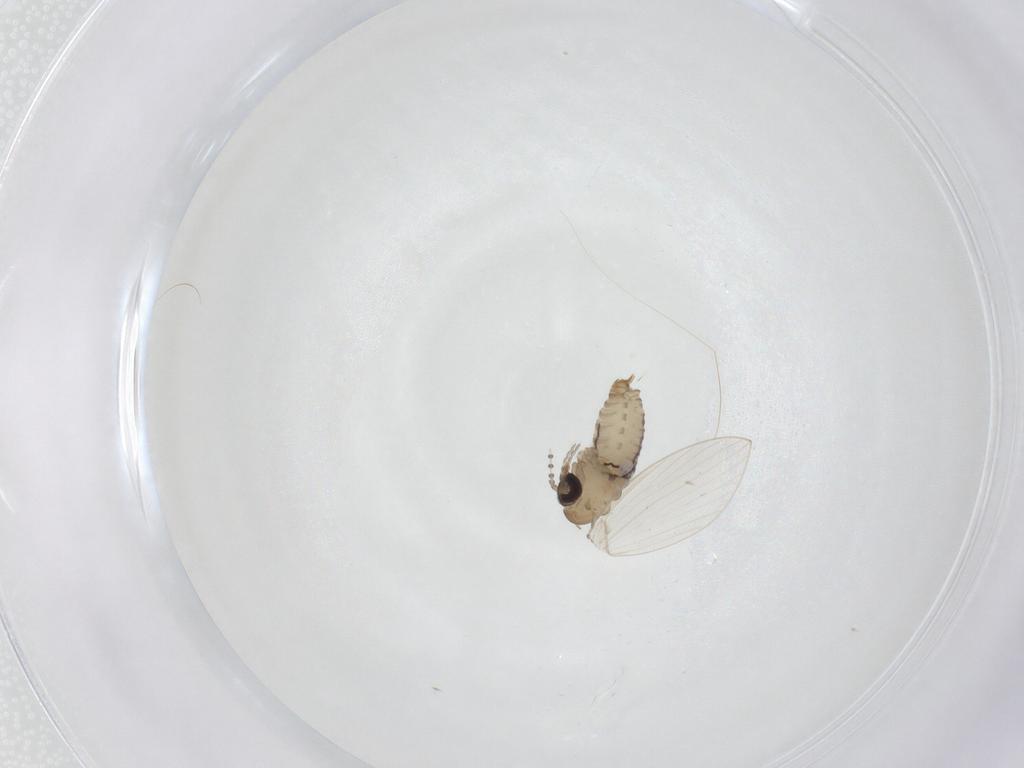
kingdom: Animalia
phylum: Arthropoda
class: Insecta
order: Diptera
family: Psychodidae
